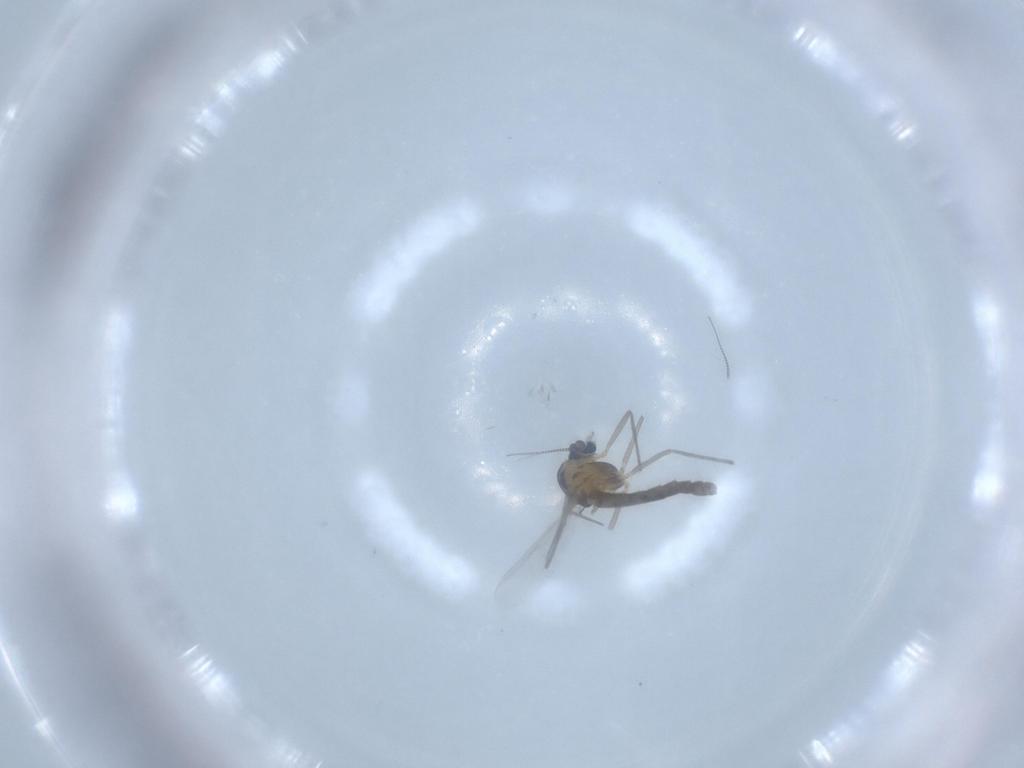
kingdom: Animalia
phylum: Arthropoda
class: Insecta
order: Diptera
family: Chironomidae
